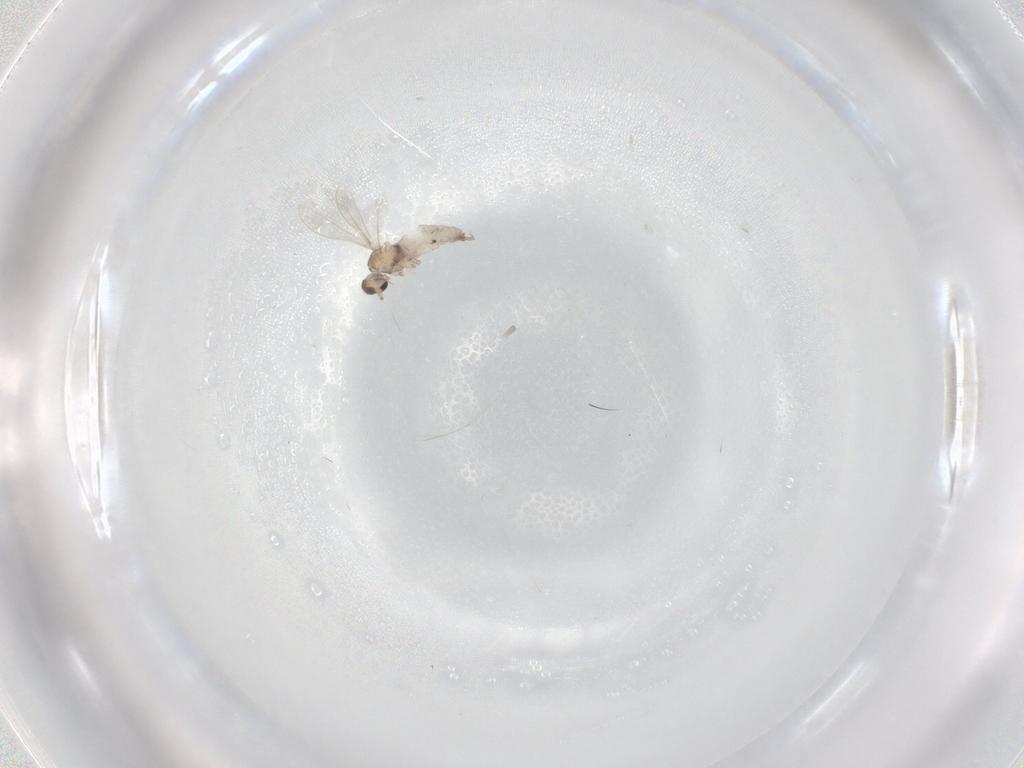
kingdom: Animalia
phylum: Arthropoda
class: Insecta
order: Diptera
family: Cecidomyiidae
